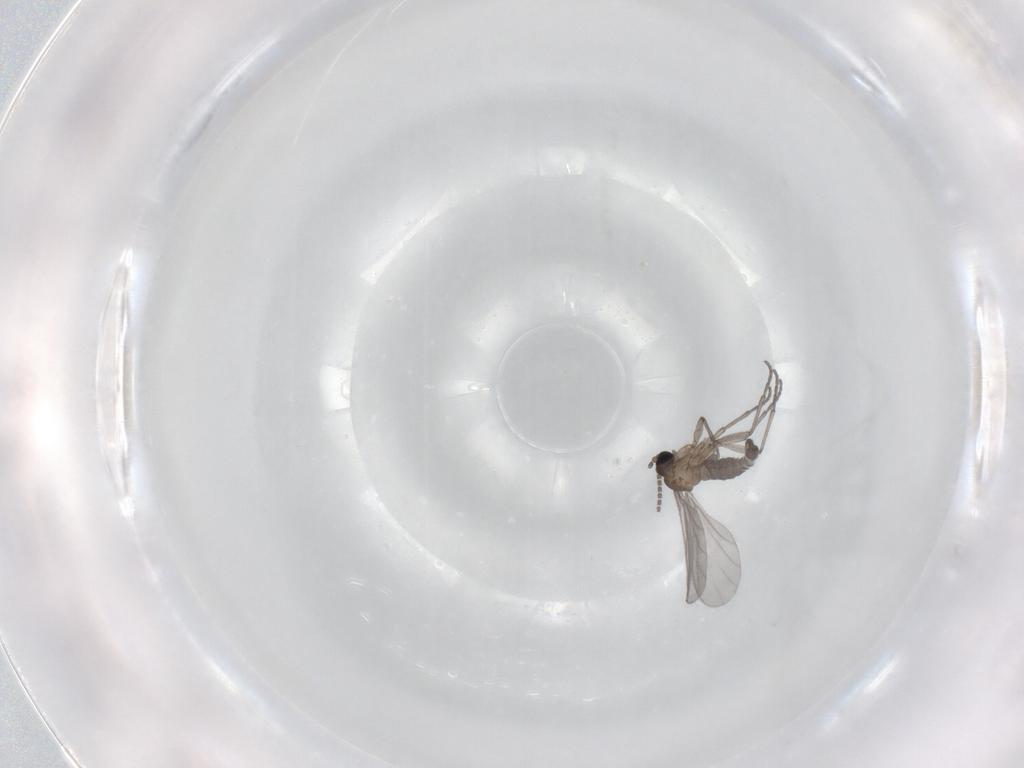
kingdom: Animalia
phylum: Arthropoda
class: Insecta
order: Diptera
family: Sciaridae
